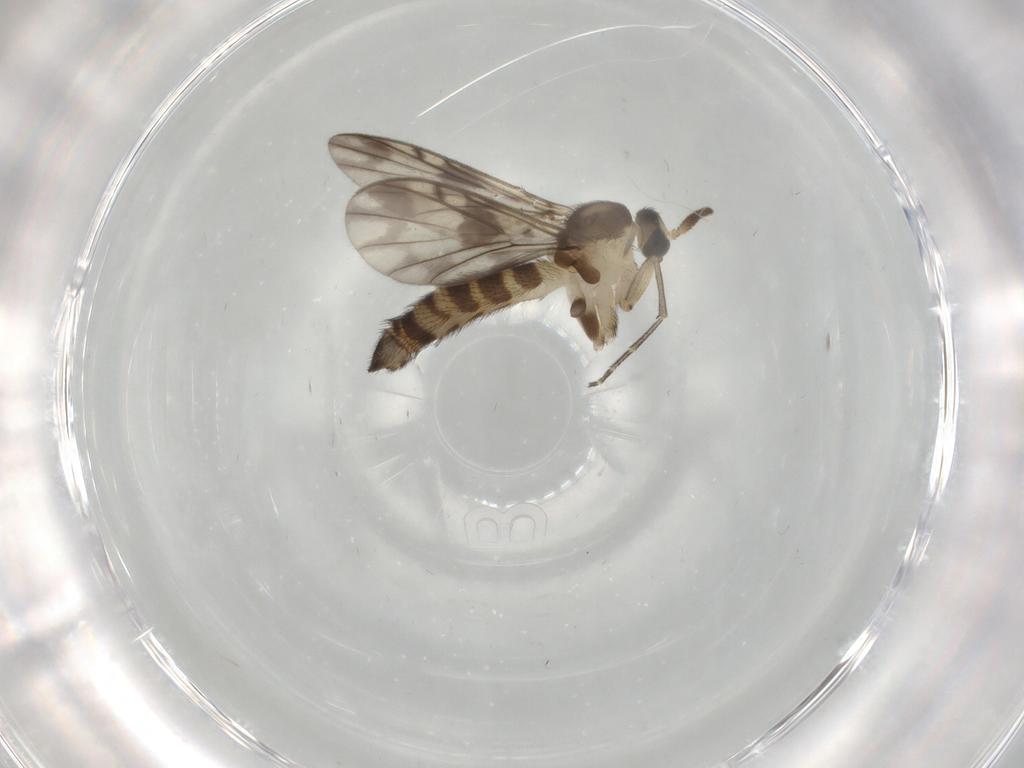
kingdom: Animalia
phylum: Arthropoda
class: Insecta
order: Diptera
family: Keroplatidae
